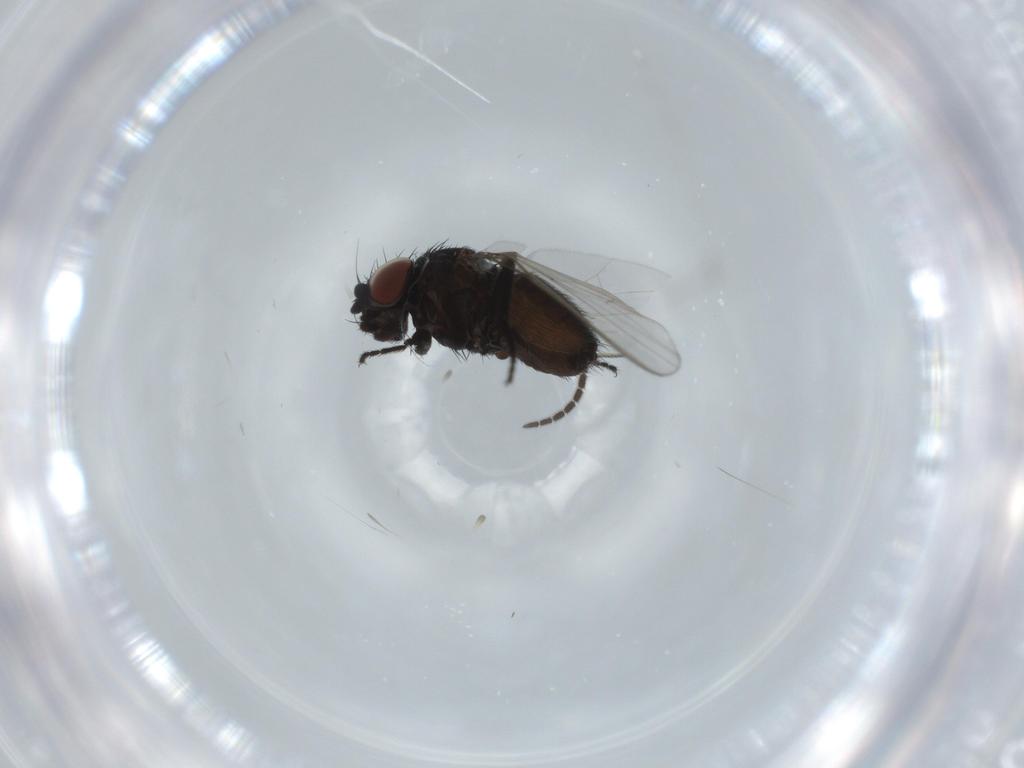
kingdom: Animalia
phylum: Arthropoda
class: Insecta
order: Diptera
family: Milichiidae
